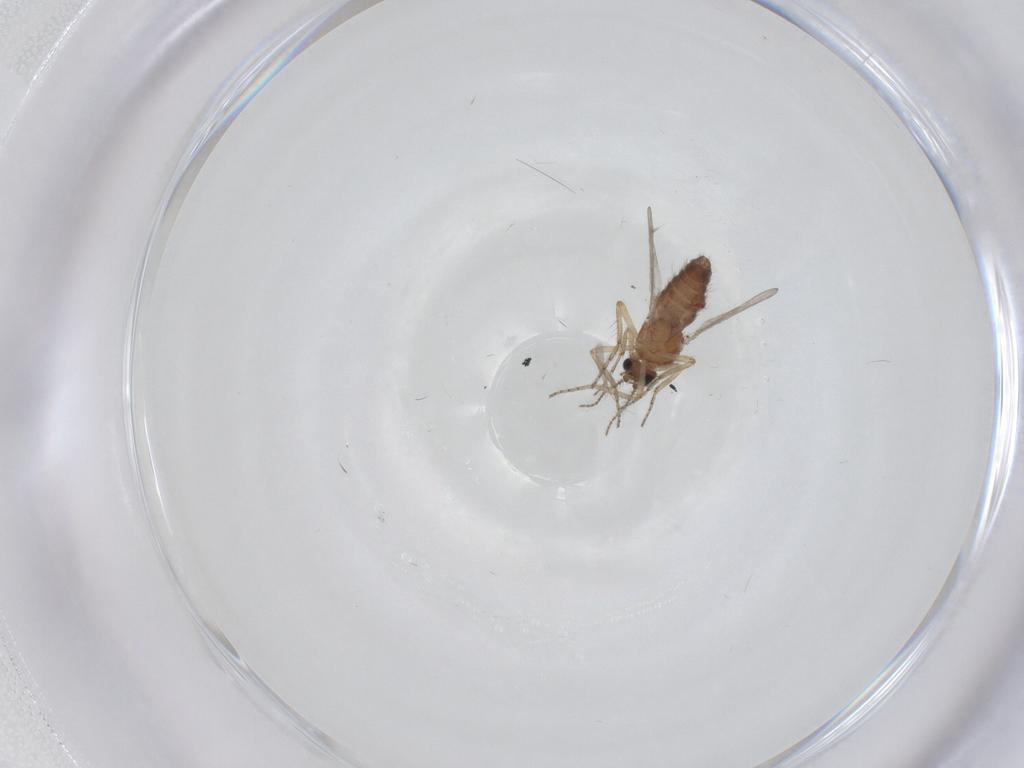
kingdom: Animalia
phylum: Arthropoda
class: Insecta
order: Diptera
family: Ceratopogonidae
